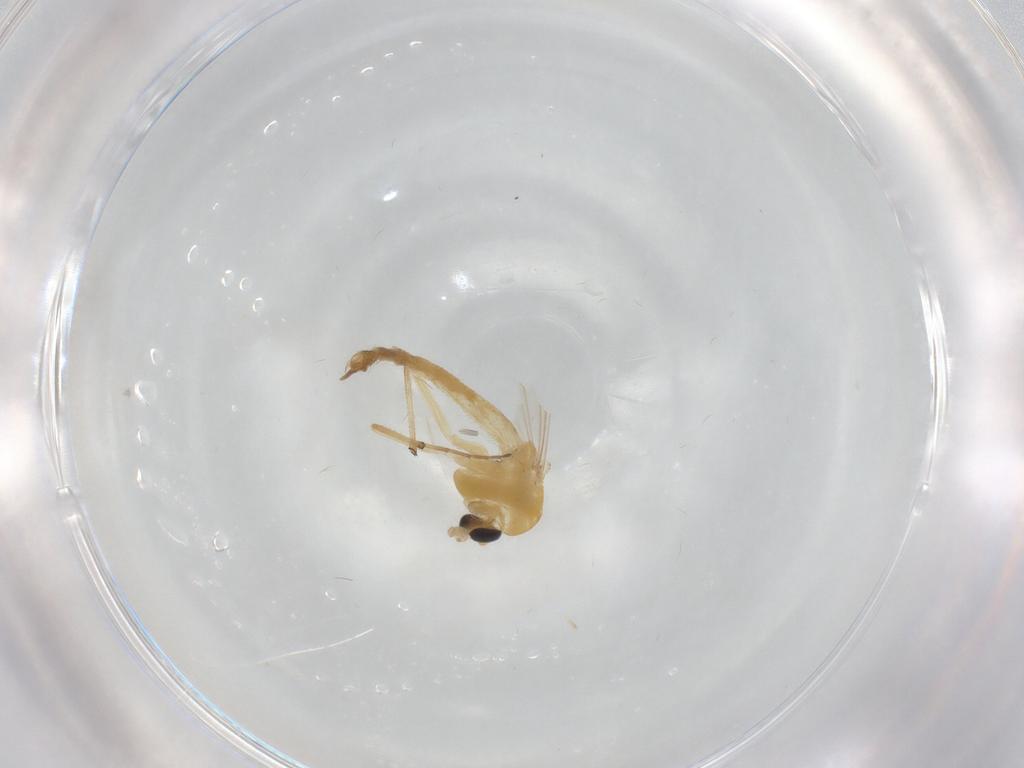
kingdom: Animalia
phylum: Arthropoda
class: Insecta
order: Diptera
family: Chironomidae
